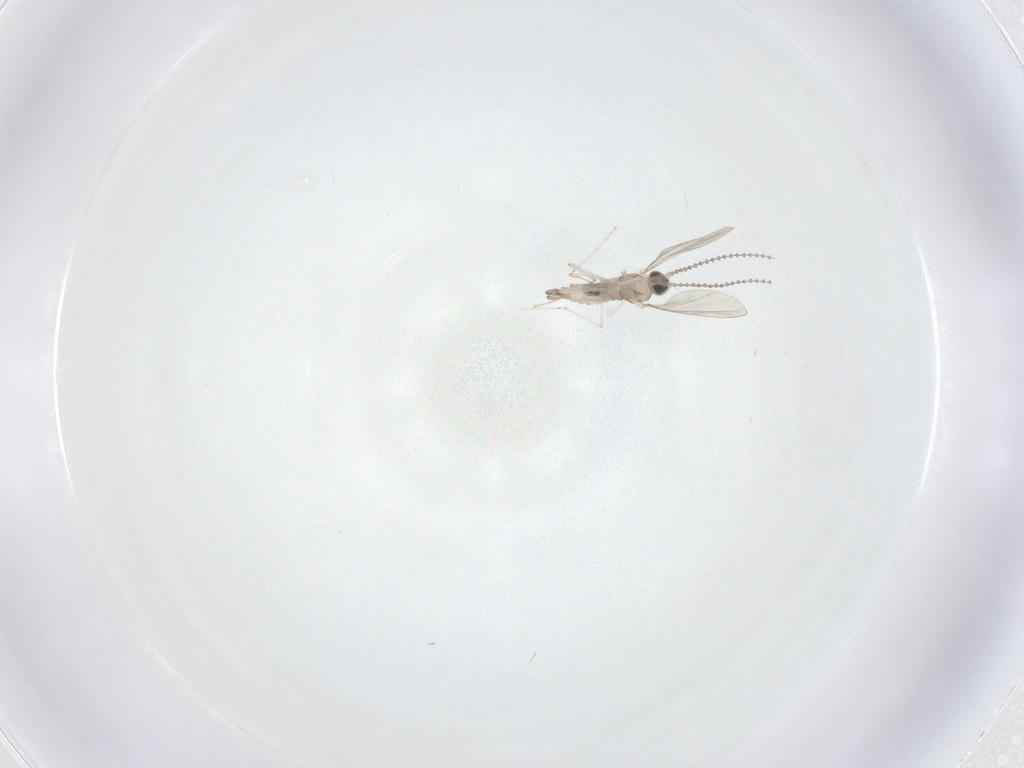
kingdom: Animalia
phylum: Arthropoda
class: Insecta
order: Diptera
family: Cecidomyiidae
